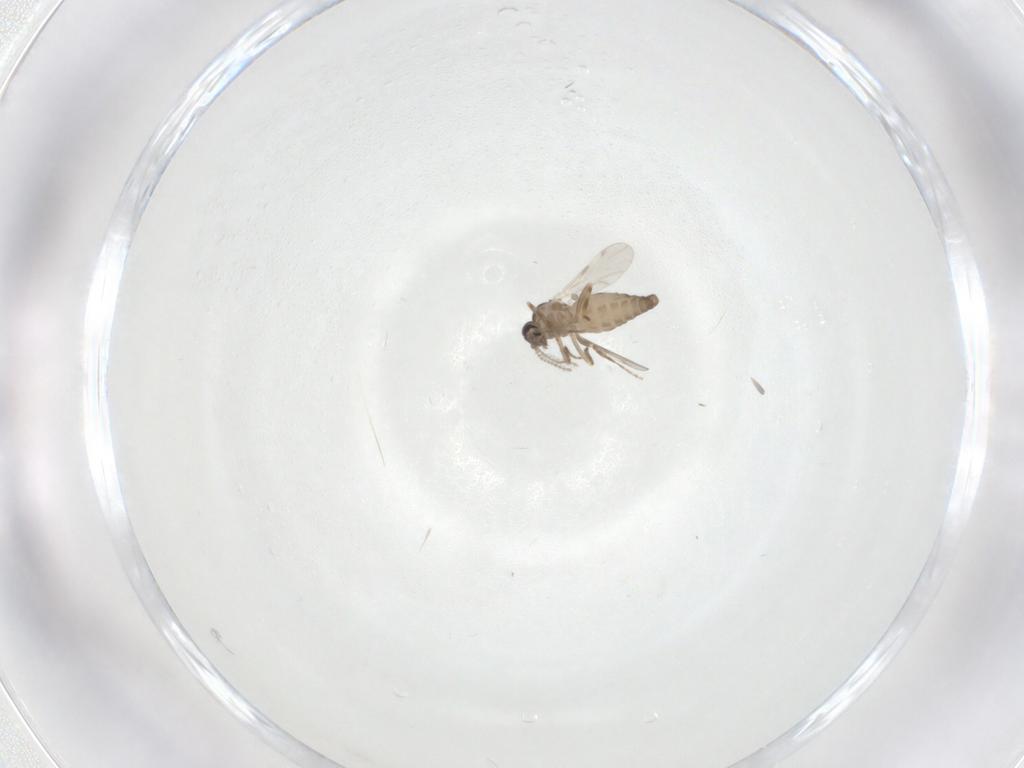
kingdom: Animalia
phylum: Arthropoda
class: Insecta
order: Diptera
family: Ceratopogonidae
